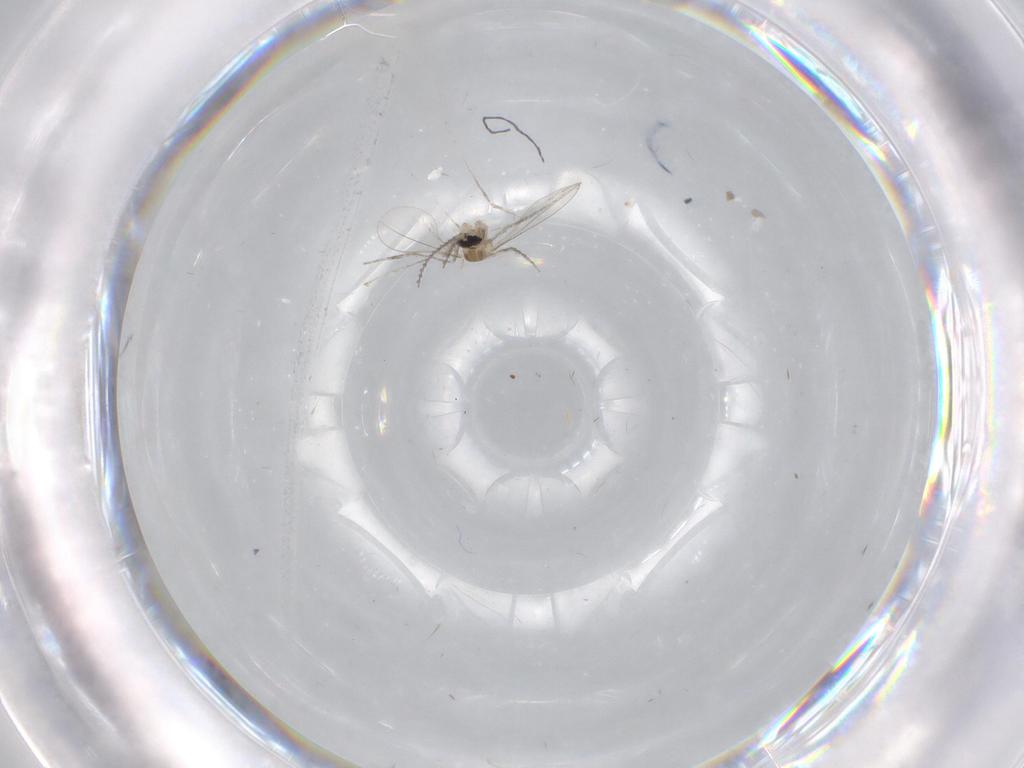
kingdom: Animalia
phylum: Arthropoda
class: Insecta
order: Diptera
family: Cecidomyiidae
